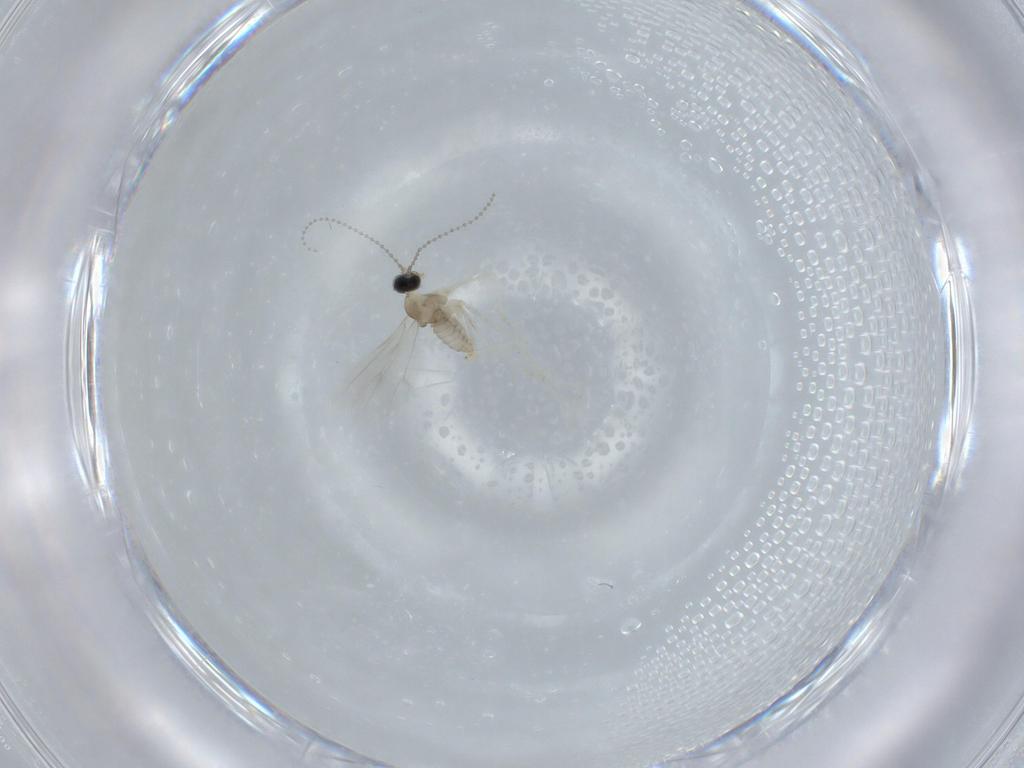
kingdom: Animalia
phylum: Arthropoda
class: Insecta
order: Diptera
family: Cecidomyiidae
